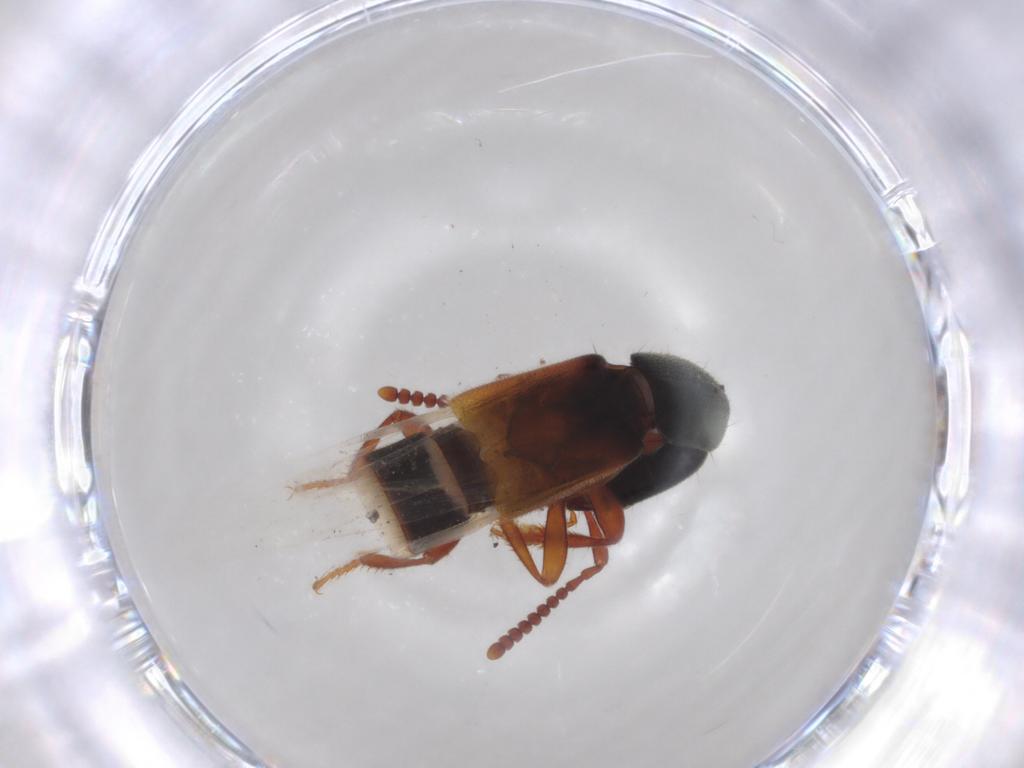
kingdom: Animalia
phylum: Arthropoda
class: Insecta
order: Coleoptera
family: Staphylinidae
